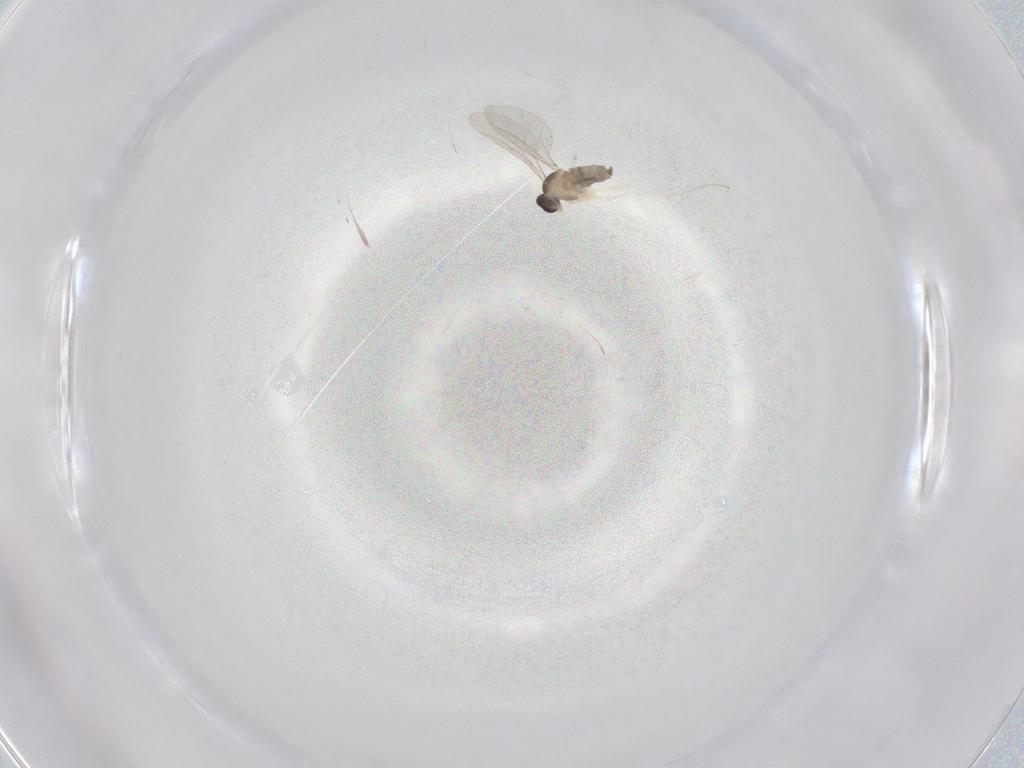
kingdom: Animalia
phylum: Arthropoda
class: Insecta
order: Diptera
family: Cecidomyiidae
